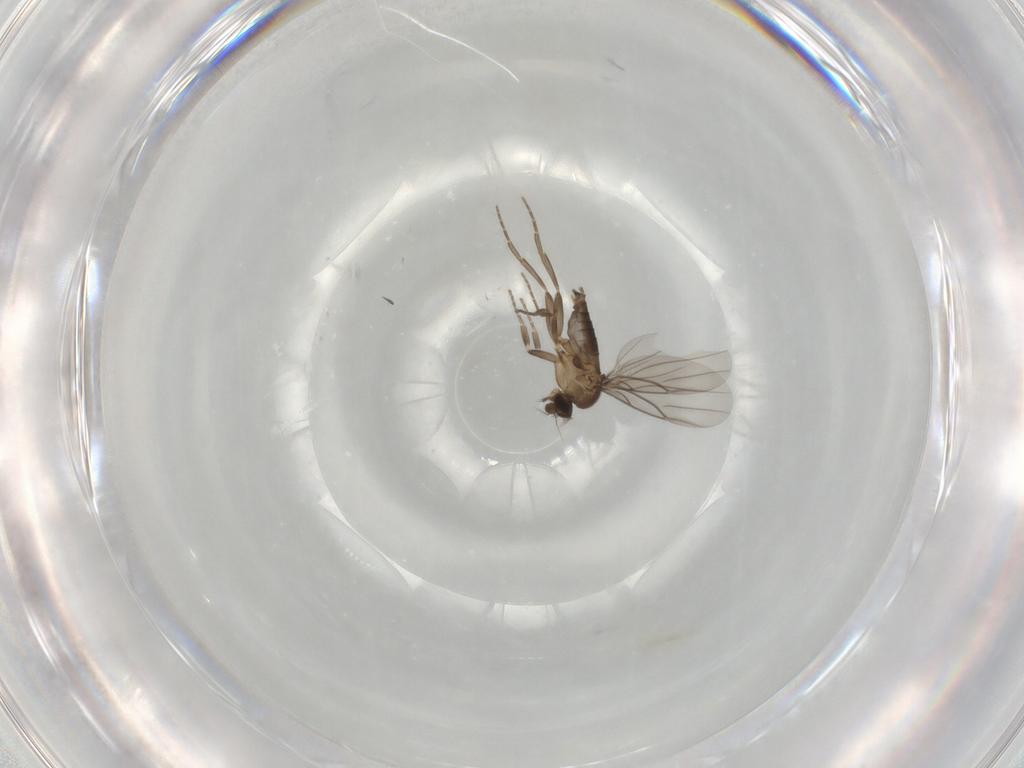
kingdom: Animalia
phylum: Arthropoda
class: Insecta
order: Diptera
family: Phoridae
